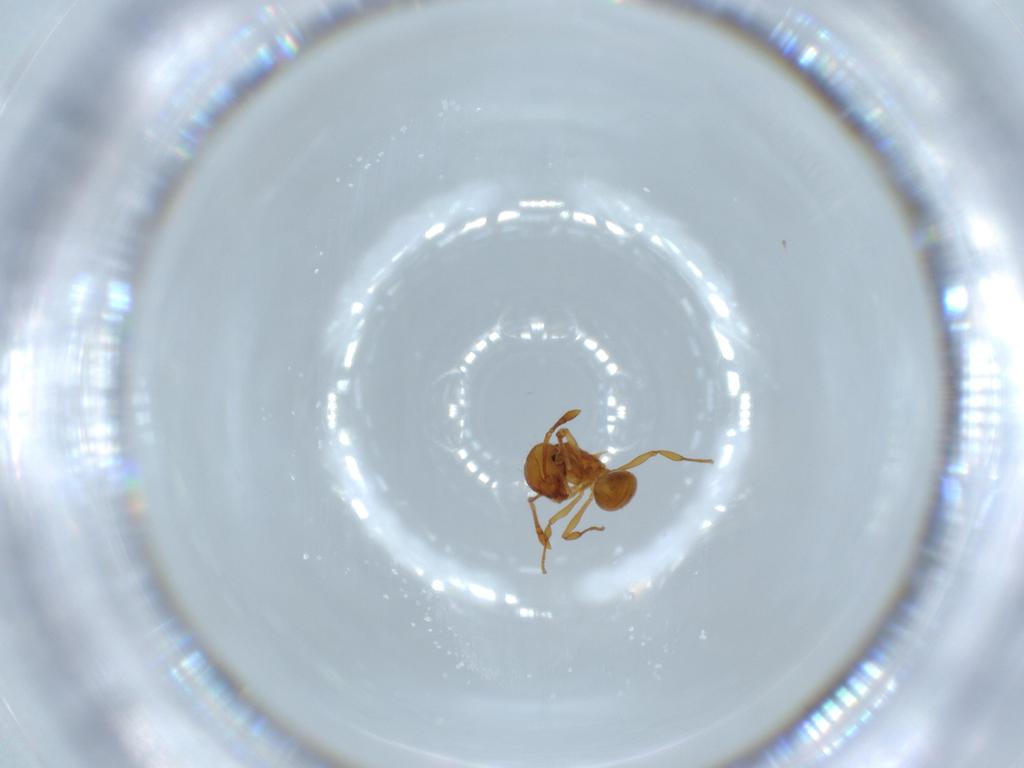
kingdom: Animalia
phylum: Arthropoda
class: Insecta
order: Hymenoptera
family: Formicidae
